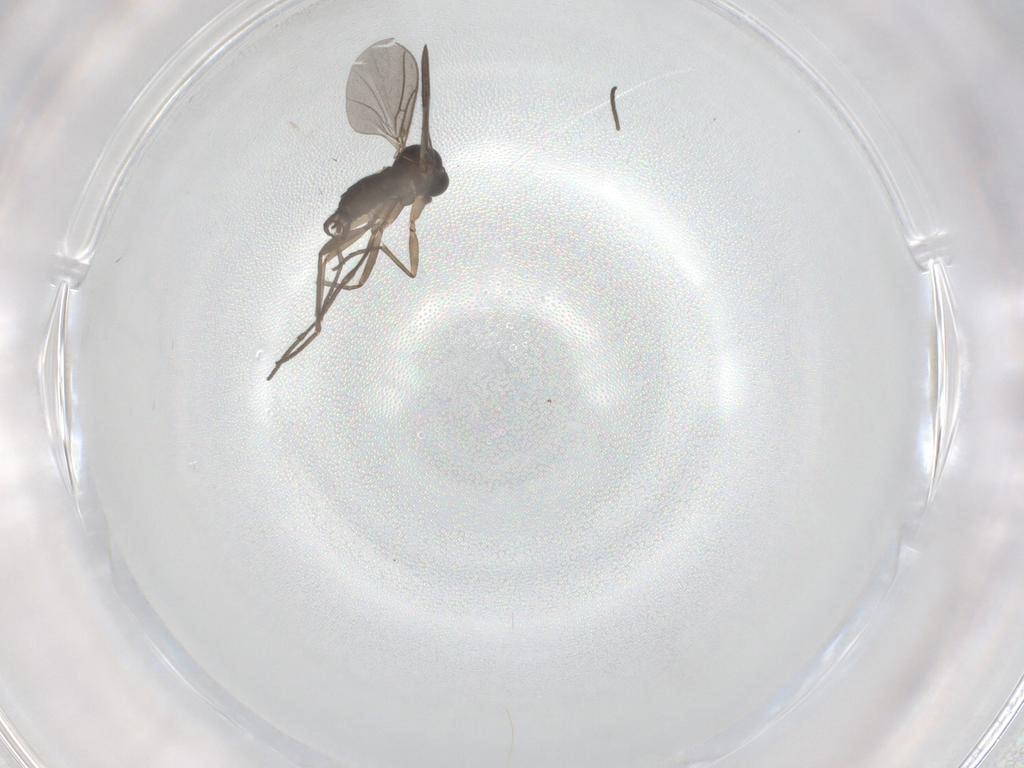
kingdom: Animalia
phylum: Arthropoda
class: Insecta
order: Diptera
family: Sciaridae
